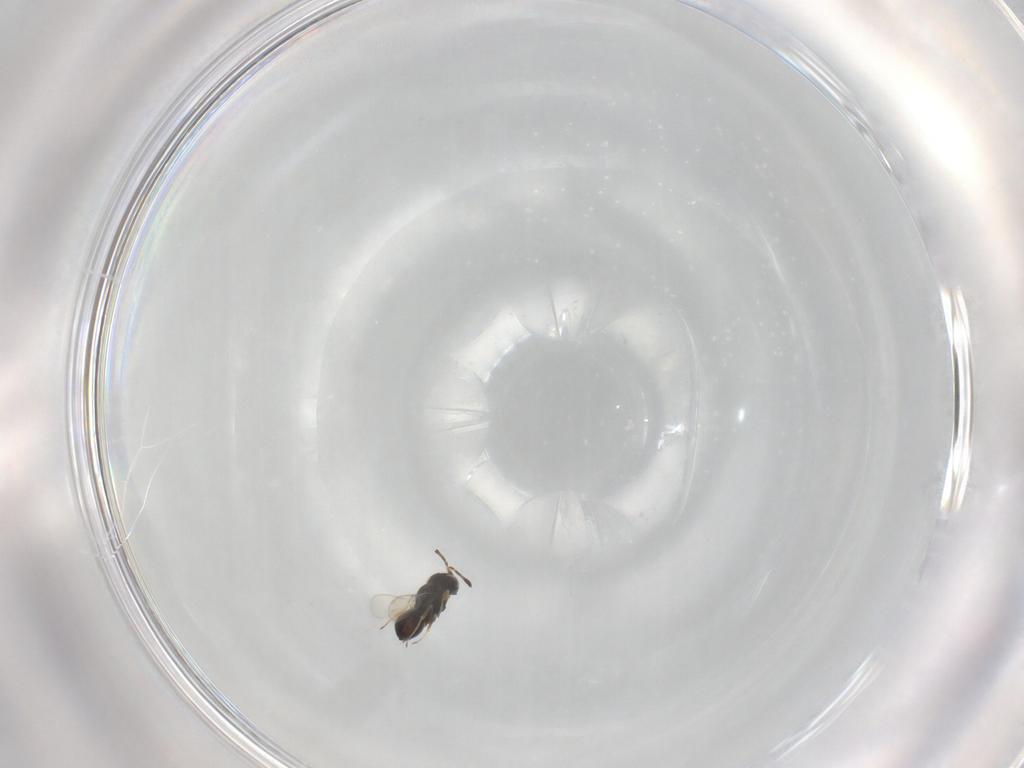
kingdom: Animalia
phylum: Arthropoda
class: Insecta
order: Hymenoptera
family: Scelionidae
